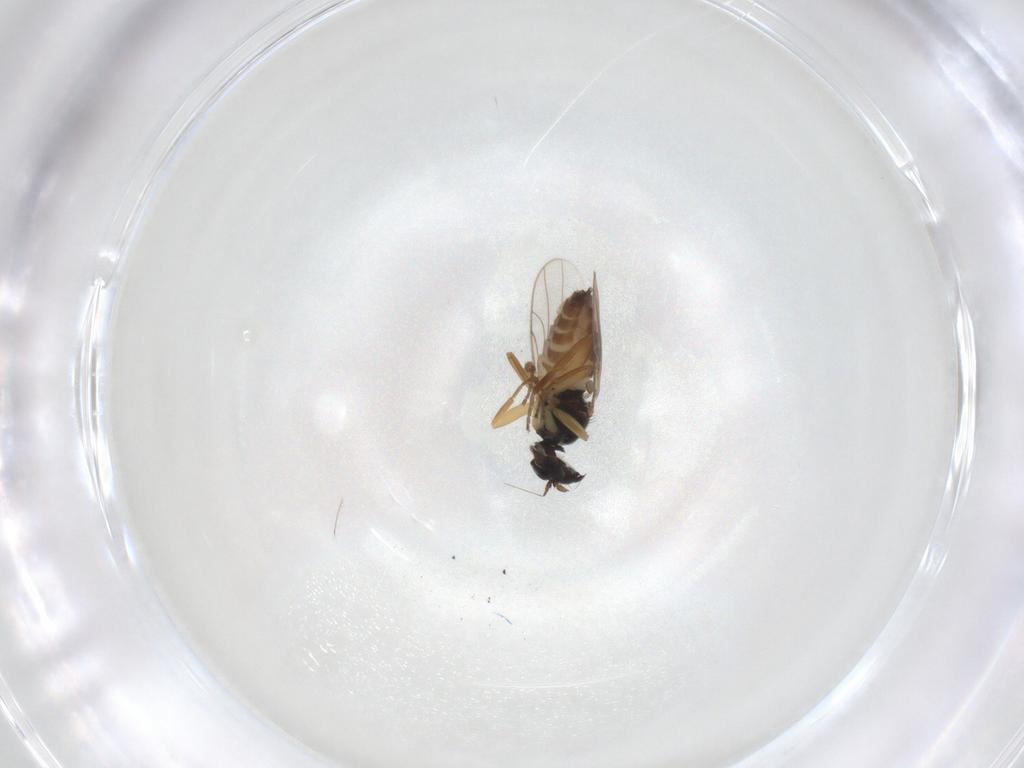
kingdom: Animalia
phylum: Arthropoda
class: Insecta
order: Diptera
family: Hybotidae
